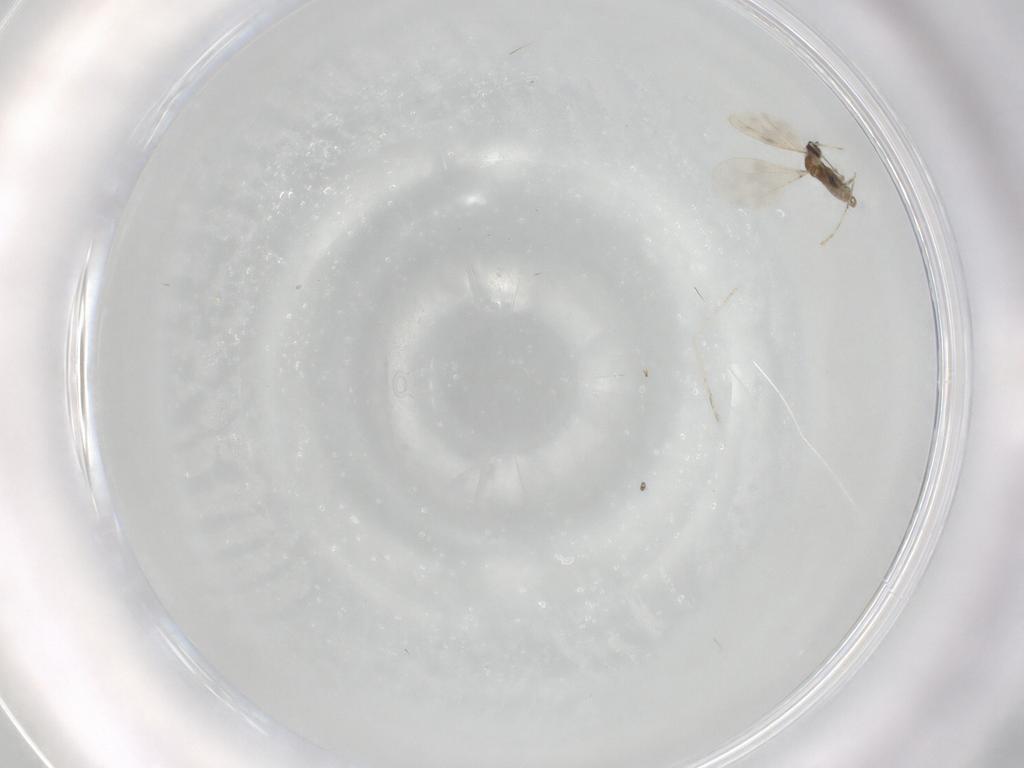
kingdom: Animalia
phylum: Arthropoda
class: Insecta
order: Diptera
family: Cecidomyiidae
